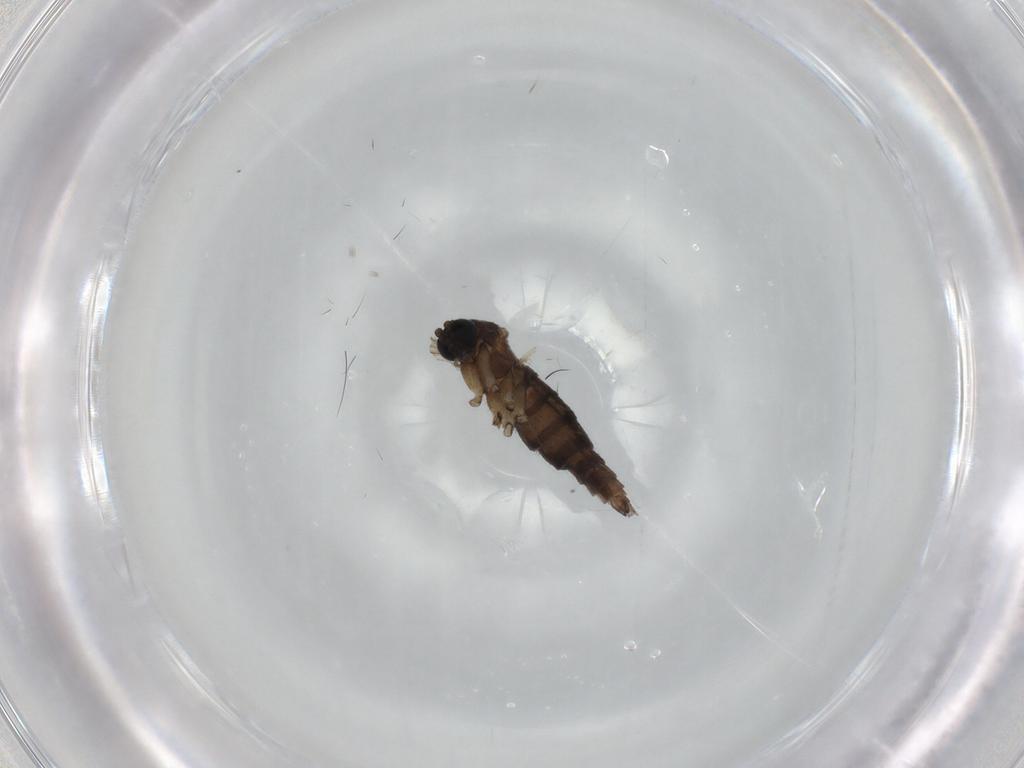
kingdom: Animalia
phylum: Arthropoda
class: Insecta
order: Diptera
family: Sciaridae
